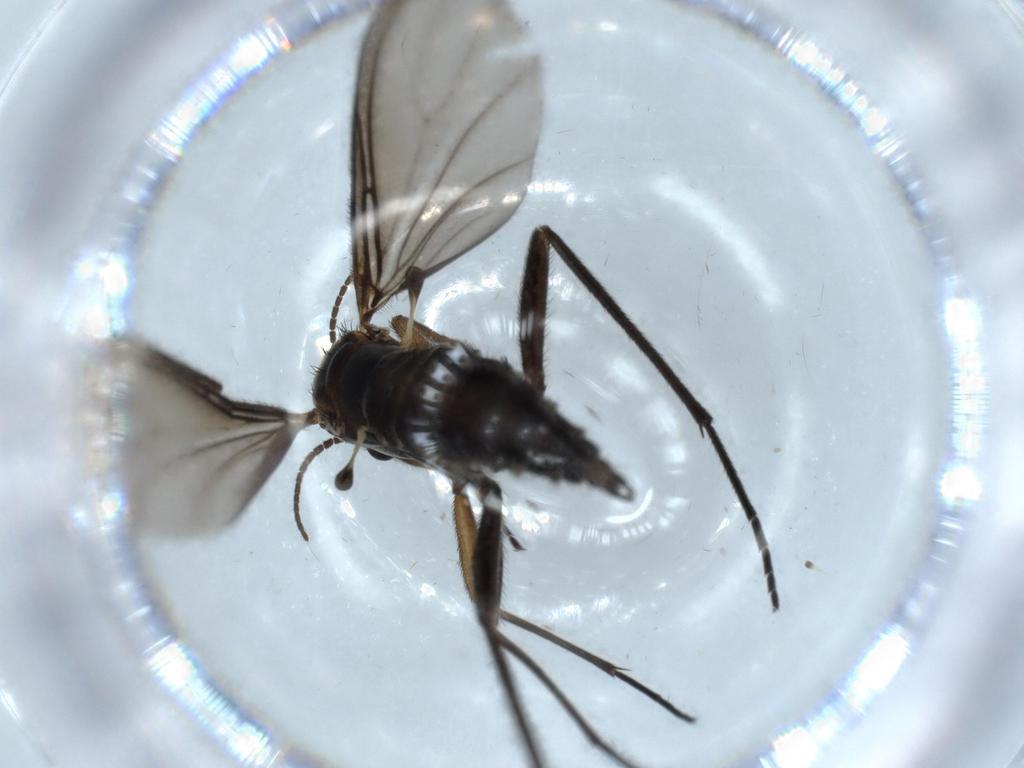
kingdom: Animalia
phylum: Arthropoda
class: Insecta
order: Diptera
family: Sciaridae
